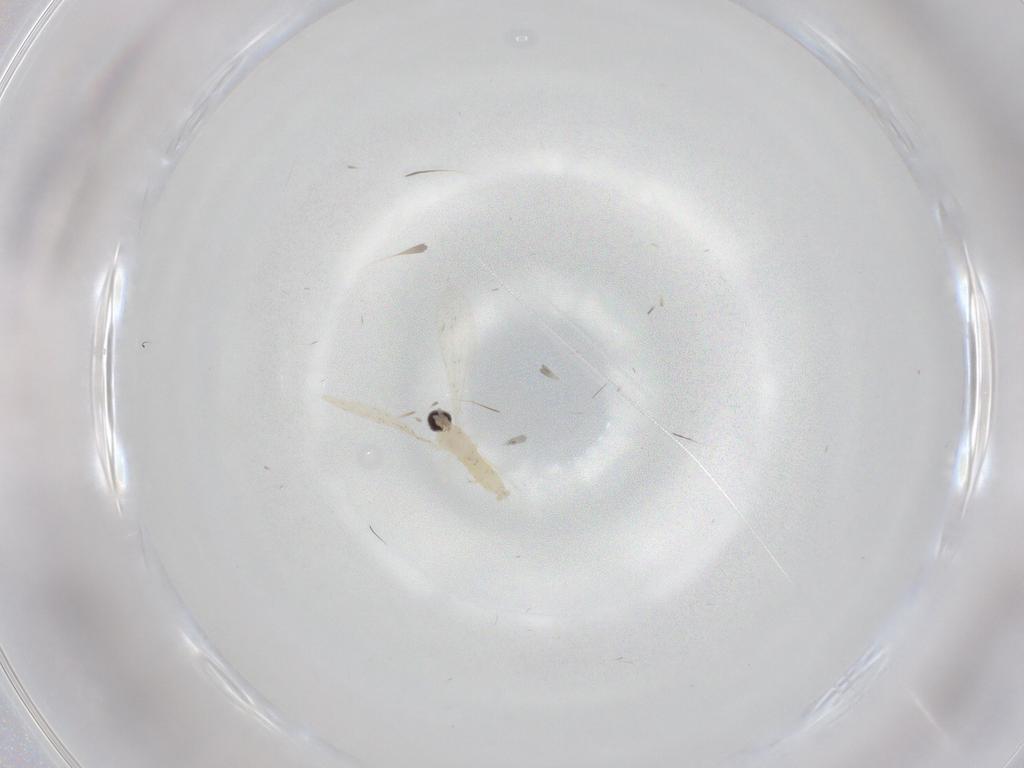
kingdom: Animalia
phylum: Arthropoda
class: Insecta
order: Diptera
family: Cecidomyiidae
